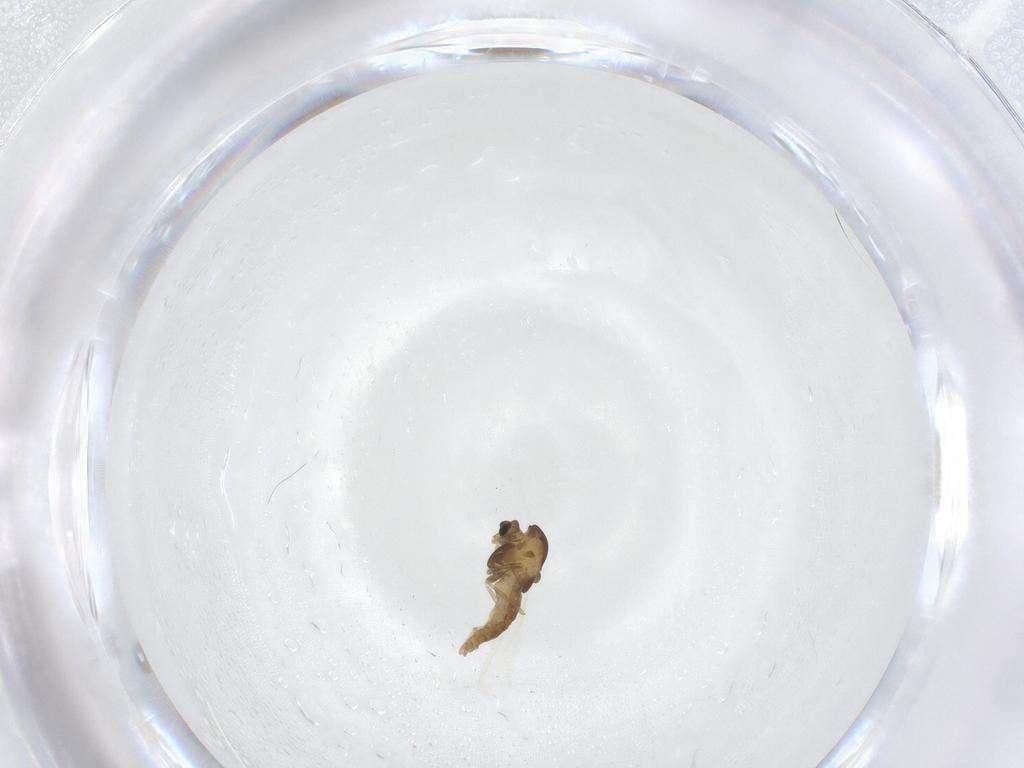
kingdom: Animalia
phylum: Arthropoda
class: Insecta
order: Diptera
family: Chironomidae
